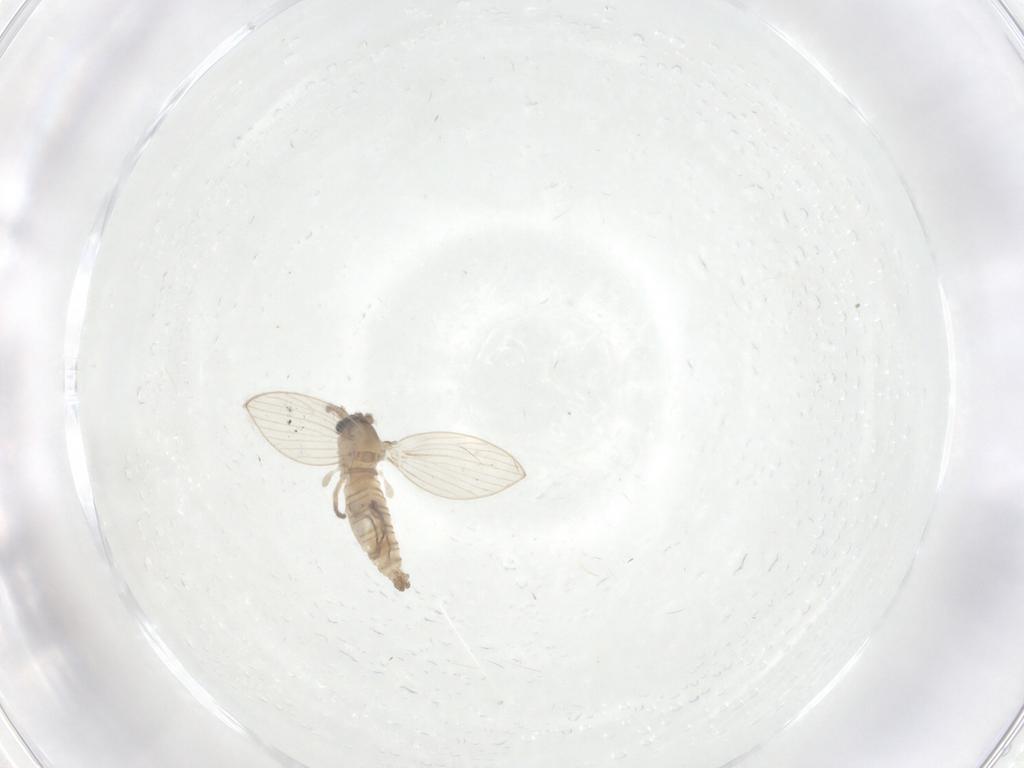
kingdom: Animalia
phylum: Arthropoda
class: Insecta
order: Diptera
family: Psychodidae
